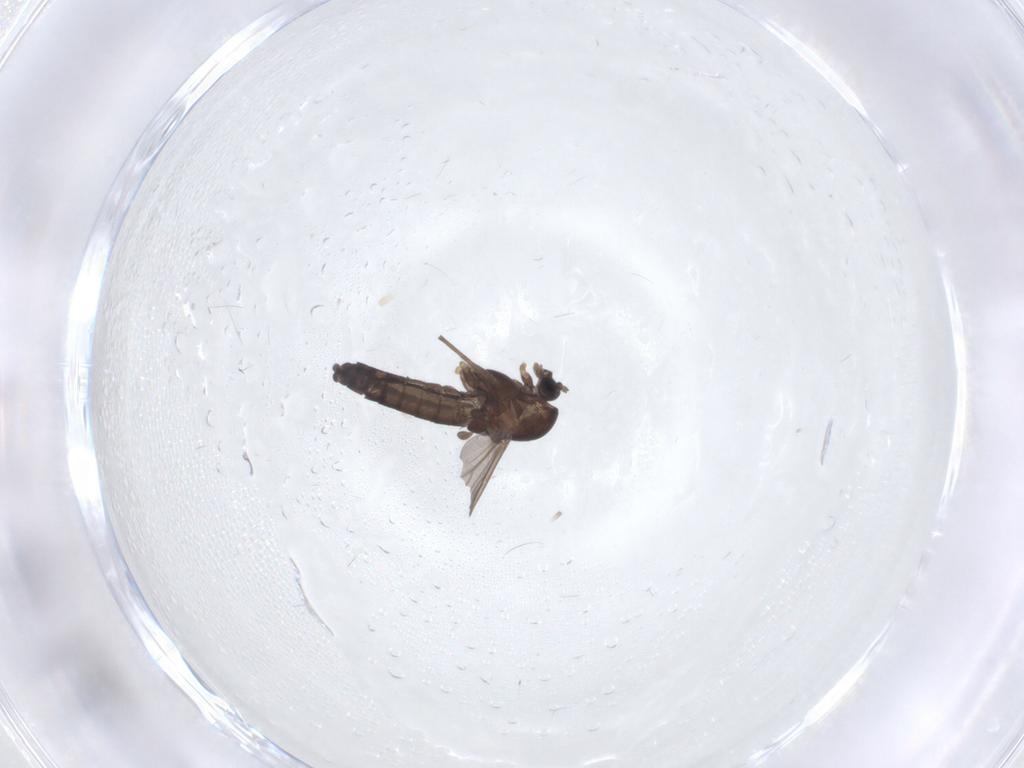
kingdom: Animalia
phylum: Arthropoda
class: Insecta
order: Diptera
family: Chironomidae
